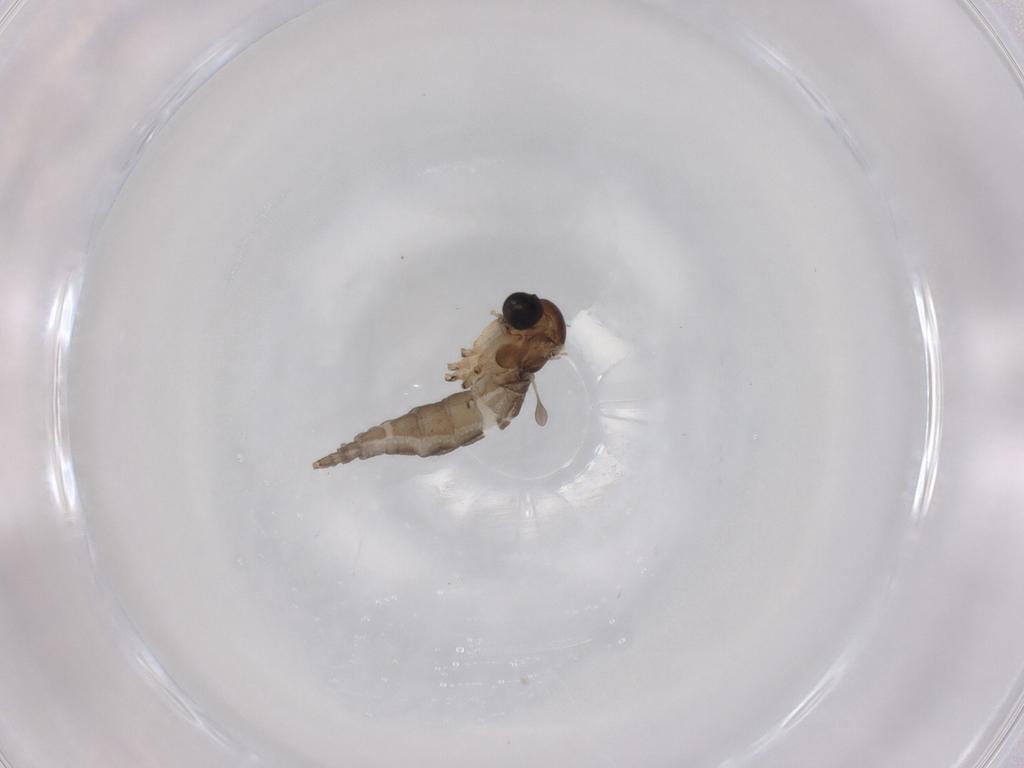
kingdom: Animalia
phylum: Arthropoda
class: Insecta
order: Diptera
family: Sciaridae
